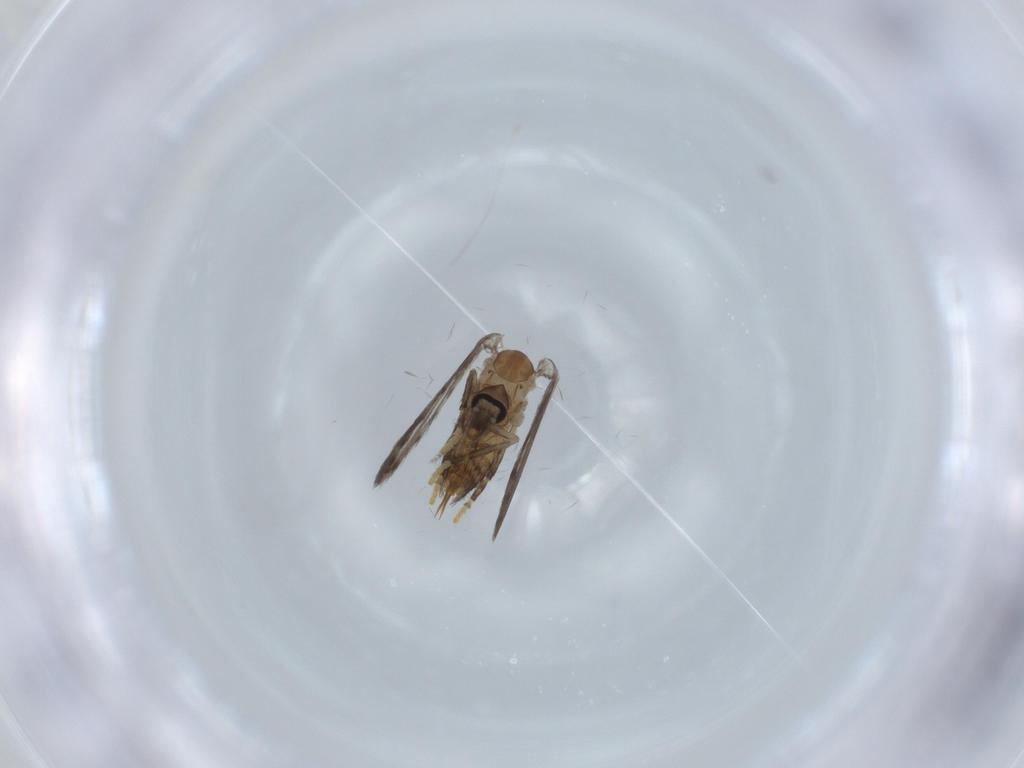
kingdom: Animalia
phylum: Arthropoda
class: Insecta
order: Diptera
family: Psychodidae
